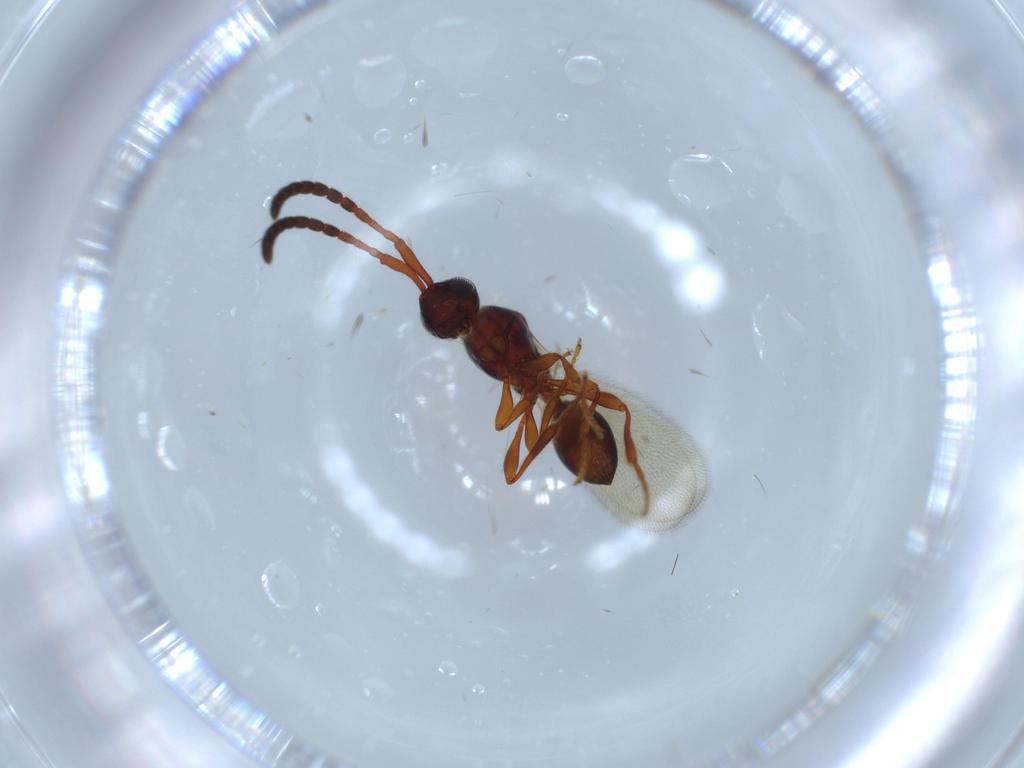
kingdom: Animalia
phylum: Arthropoda
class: Insecta
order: Hymenoptera
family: Diapriidae
